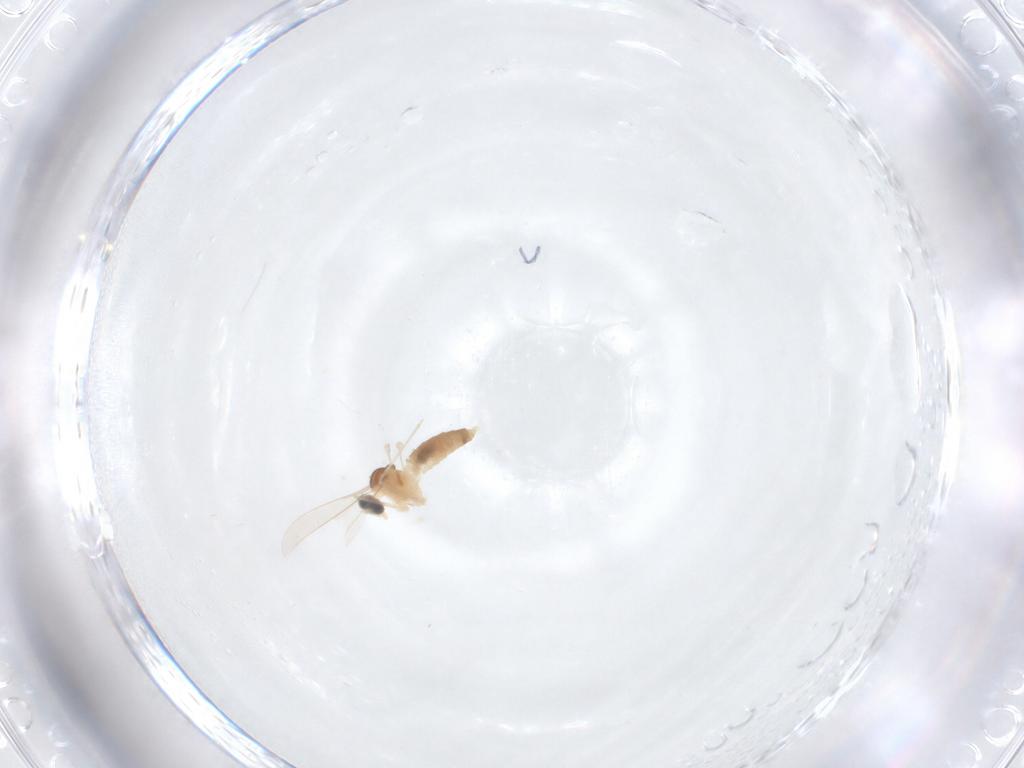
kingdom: Animalia
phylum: Arthropoda
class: Insecta
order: Diptera
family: Cecidomyiidae
